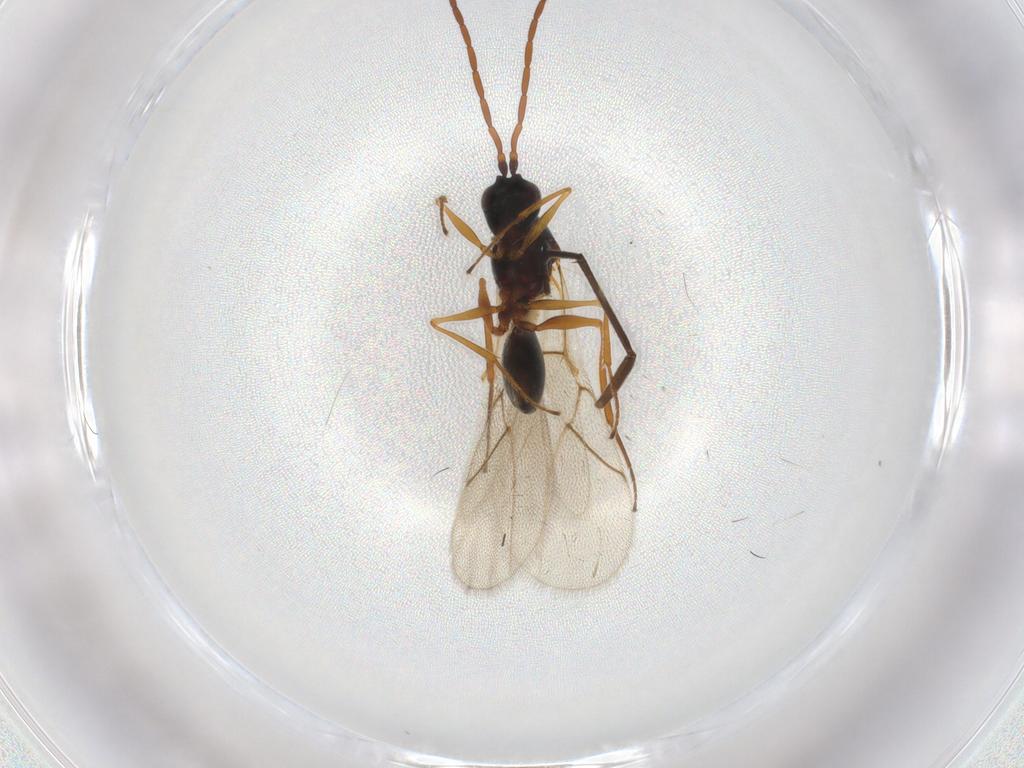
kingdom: Animalia
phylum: Arthropoda
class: Insecta
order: Hymenoptera
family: Figitidae
